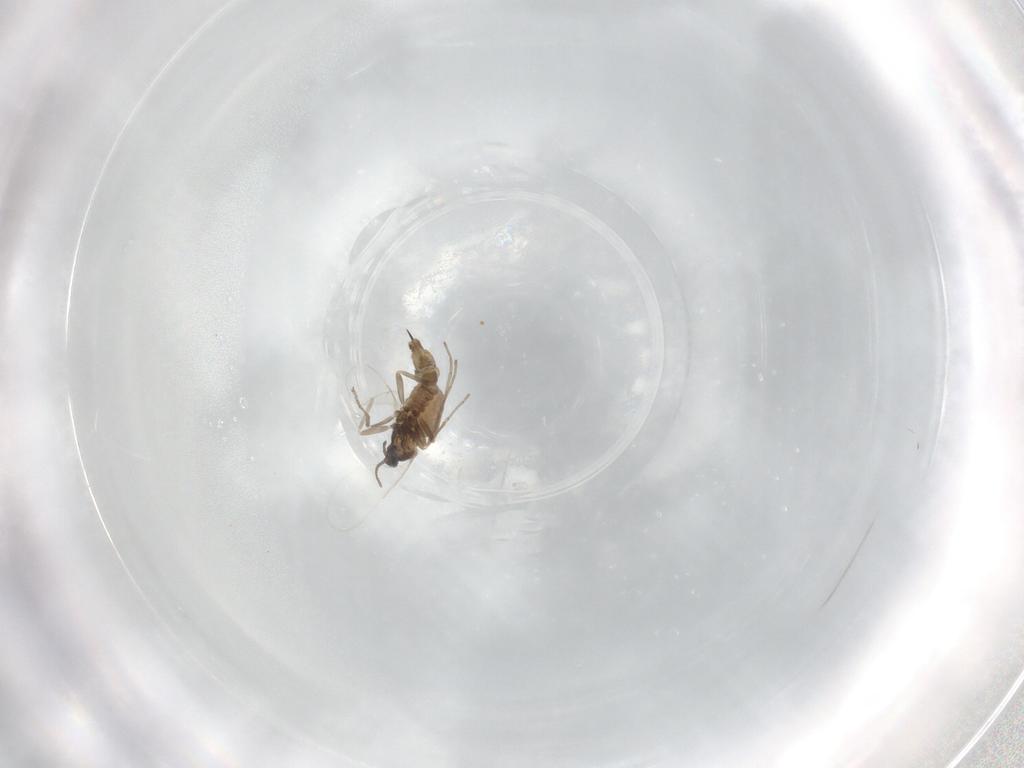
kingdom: Animalia
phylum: Arthropoda
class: Insecta
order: Diptera
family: Cecidomyiidae
